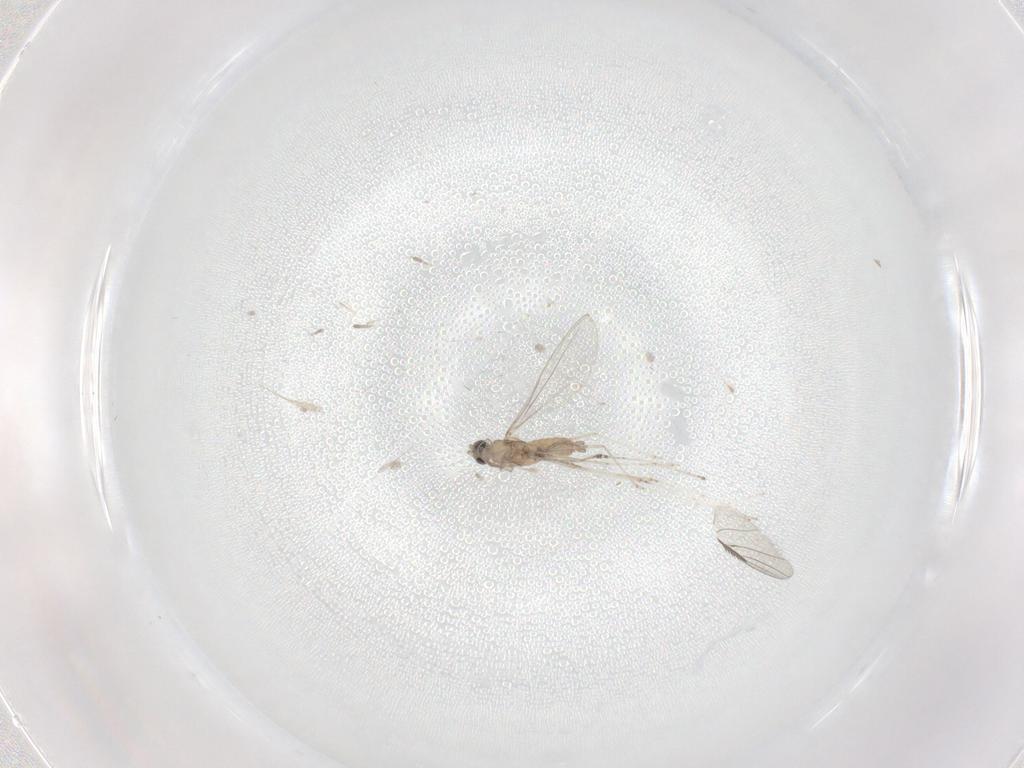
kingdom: Animalia
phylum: Arthropoda
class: Insecta
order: Diptera
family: Phoridae
